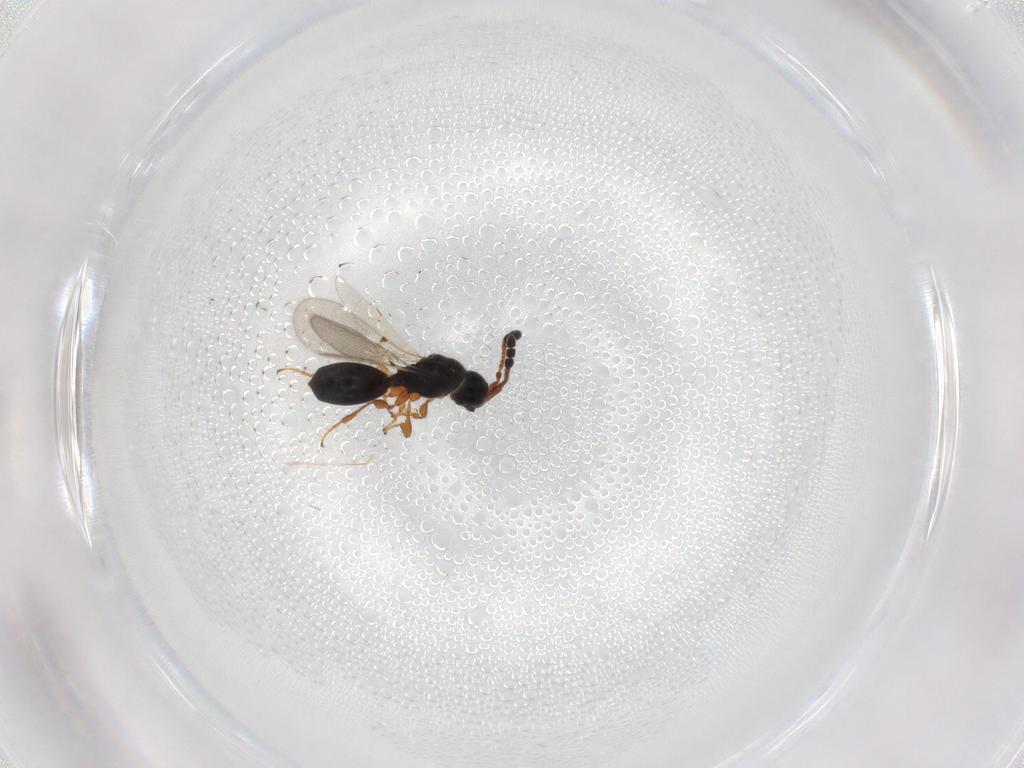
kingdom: Animalia
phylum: Arthropoda
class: Insecta
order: Hymenoptera
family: Diapriidae
